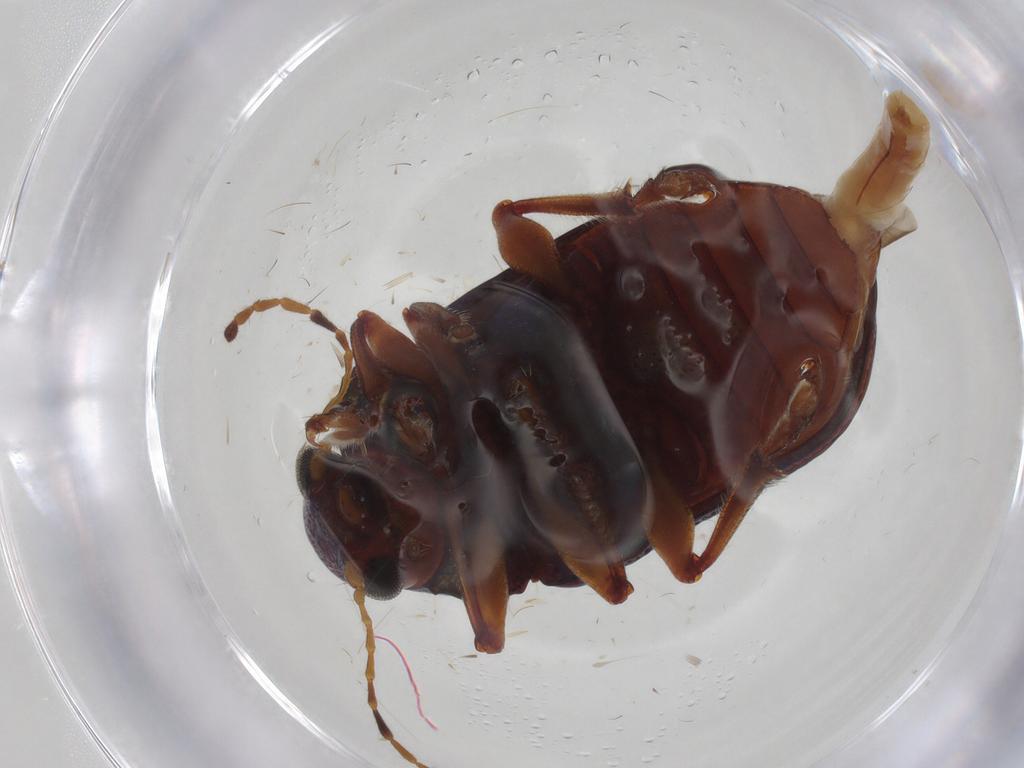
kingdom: Animalia
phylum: Arthropoda
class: Insecta
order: Coleoptera
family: Chrysomelidae
